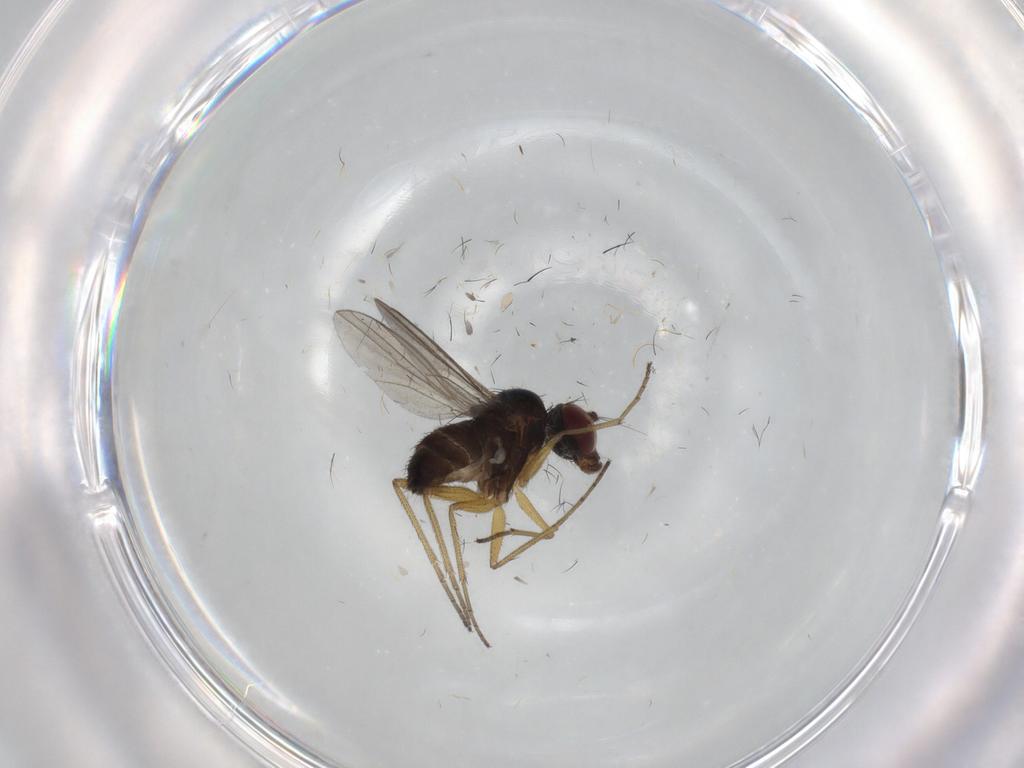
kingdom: Animalia
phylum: Arthropoda
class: Insecta
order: Diptera
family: Dolichopodidae
